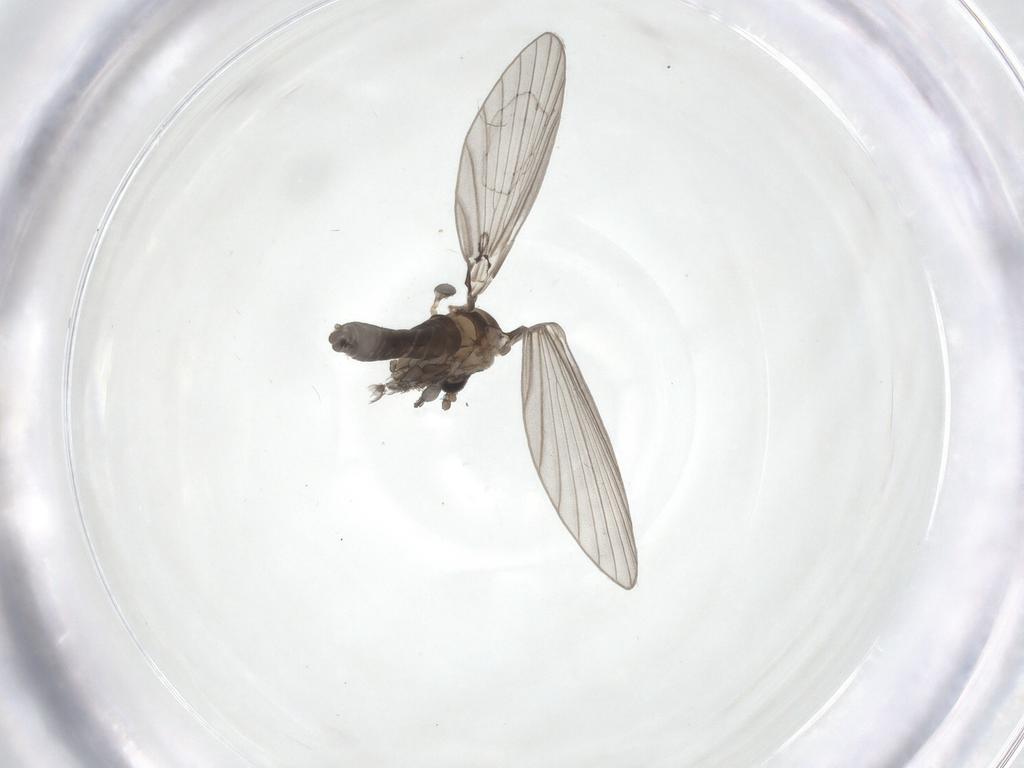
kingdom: Animalia
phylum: Arthropoda
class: Insecta
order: Diptera
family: Psychodidae
